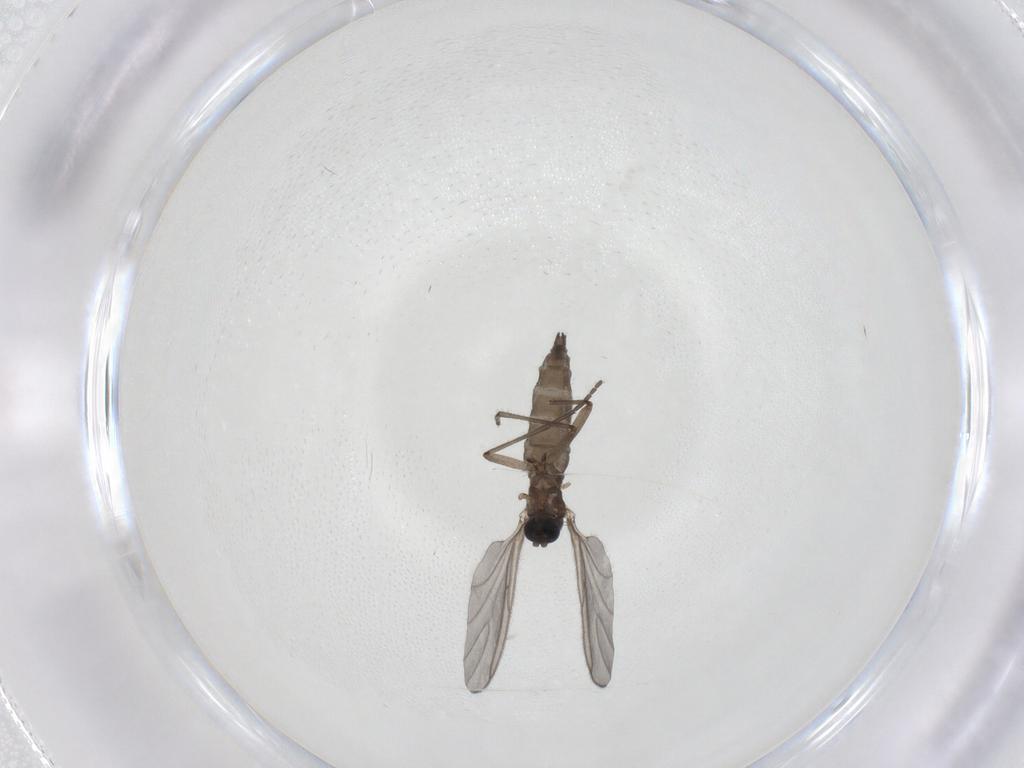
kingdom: Animalia
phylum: Arthropoda
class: Insecta
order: Diptera
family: Sciaridae
